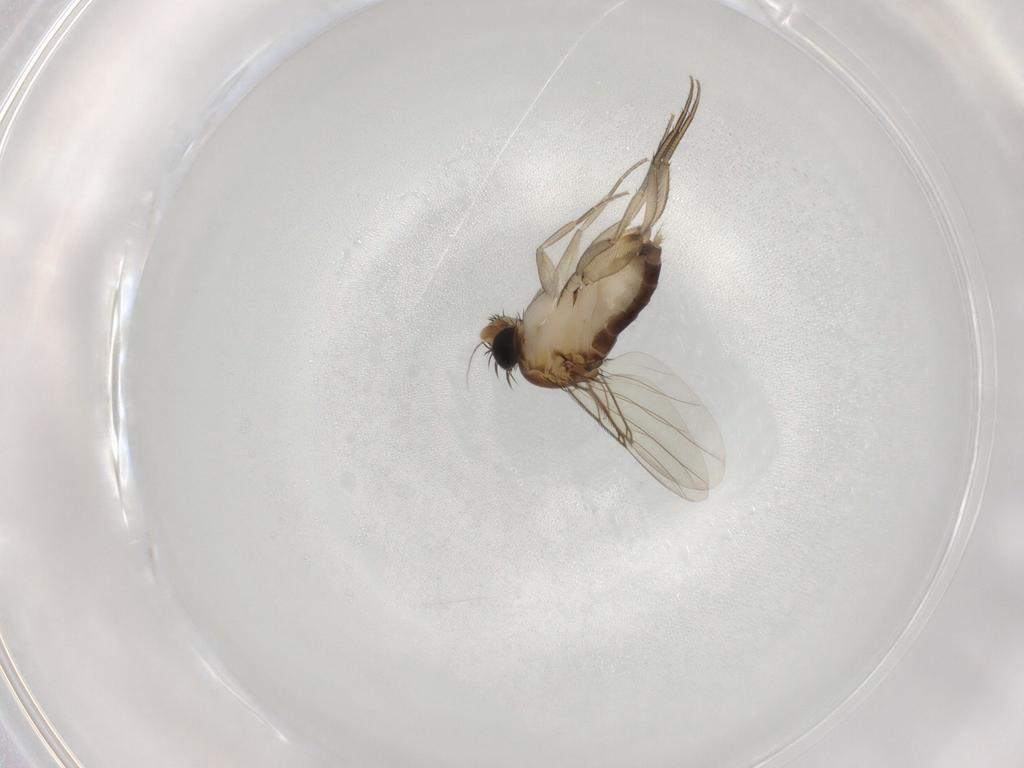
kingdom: Animalia
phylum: Arthropoda
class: Insecta
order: Diptera
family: Phoridae
